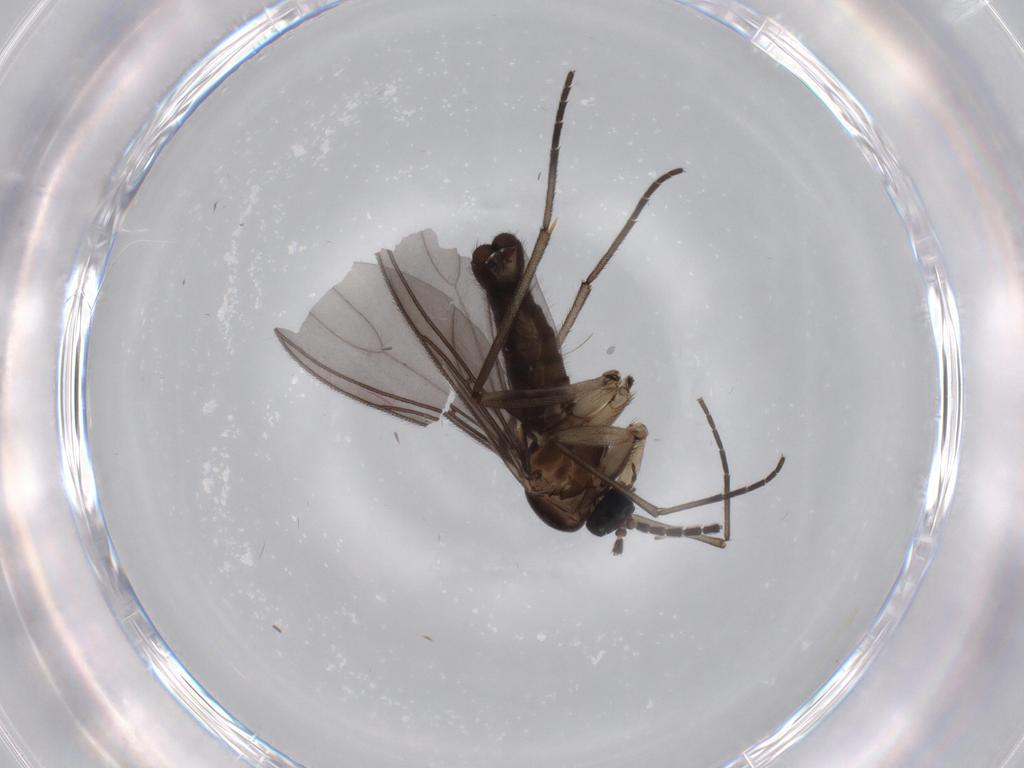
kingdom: Animalia
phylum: Arthropoda
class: Insecta
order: Diptera
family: Sciaridae
